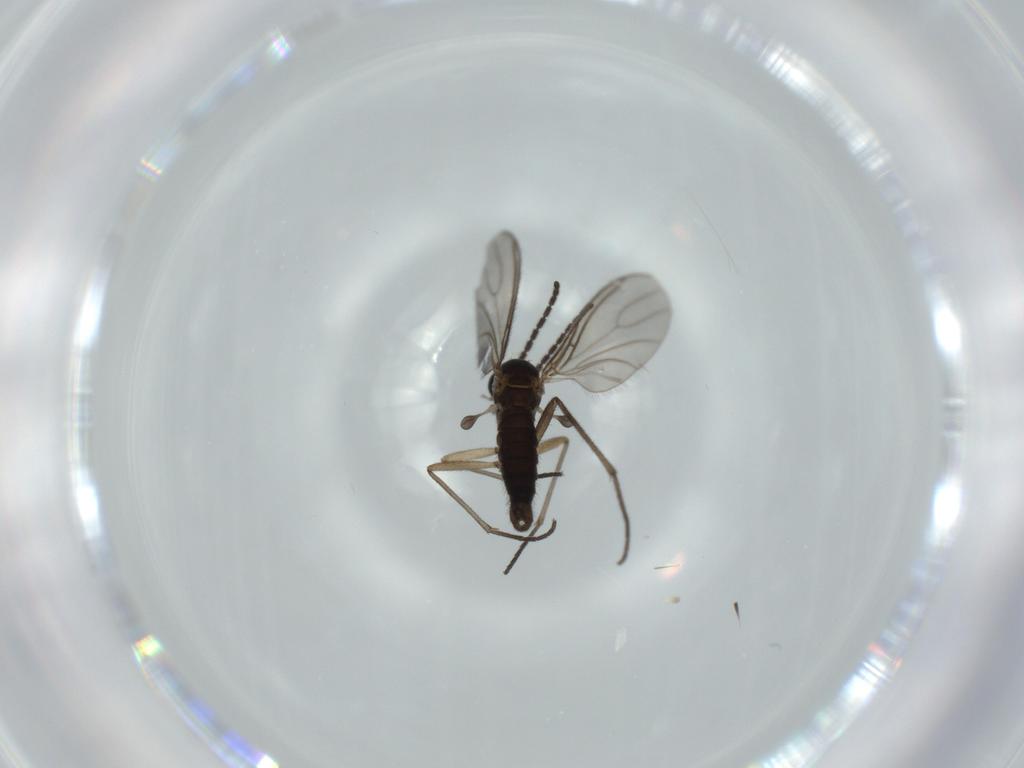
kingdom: Animalia
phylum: Arthropoda
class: Insecta
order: Diptera
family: Sciaridae
